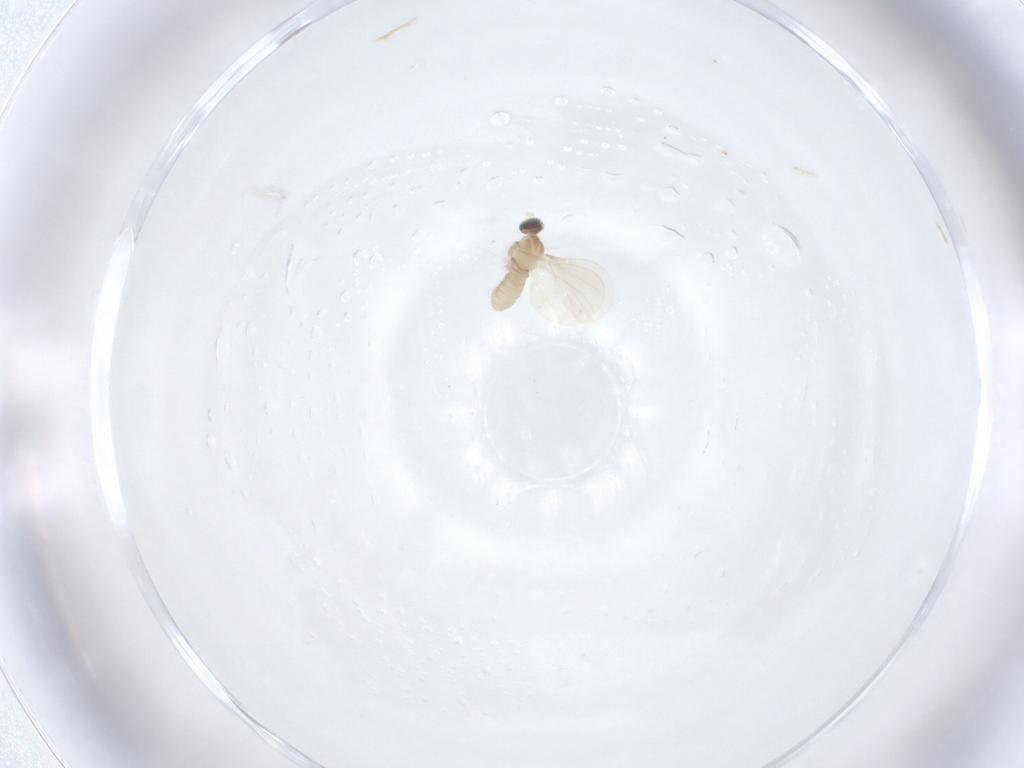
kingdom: Animalia
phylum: Arthropoda
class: Insecta
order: Diptera
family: Cecidomyiidae
